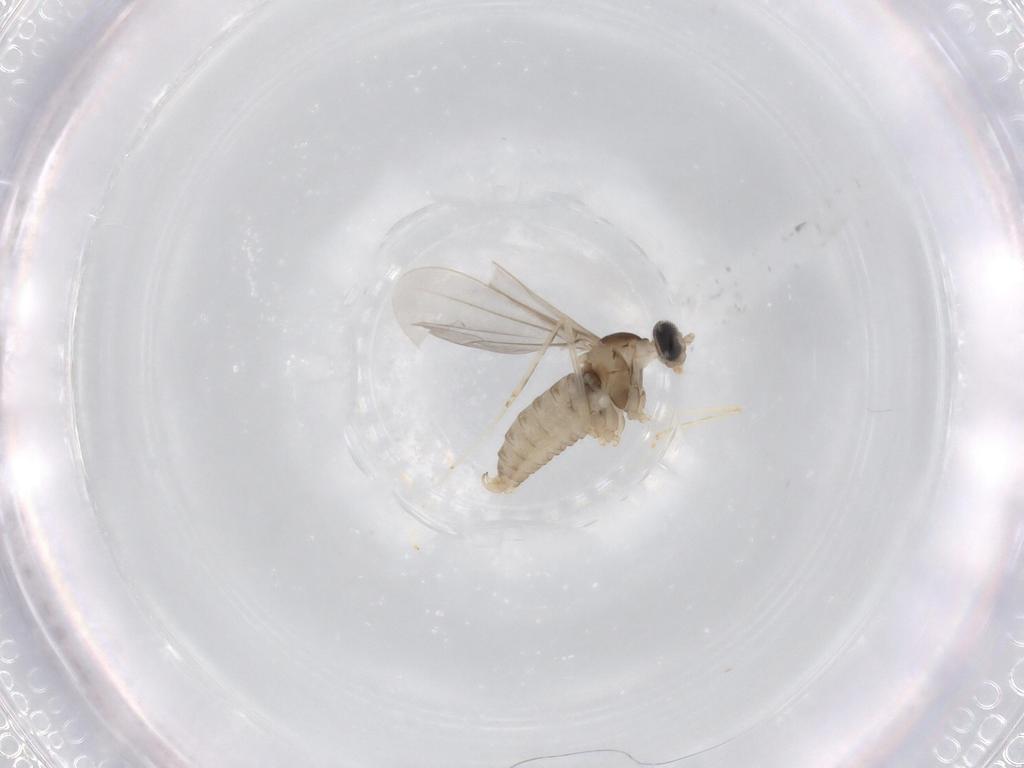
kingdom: Animalia
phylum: Arthropoda
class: Insecta
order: Diptera
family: Cecidomyiidae
